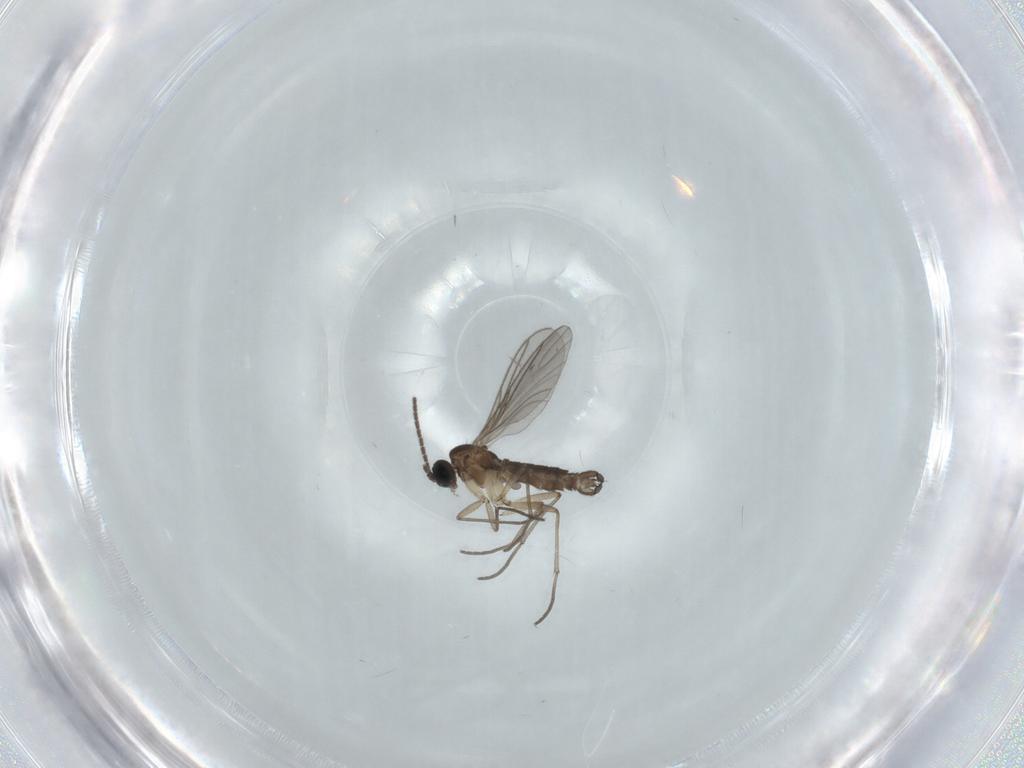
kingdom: Animalia
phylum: Arthropoda
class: Insecta
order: Diptera
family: Sciaridae
